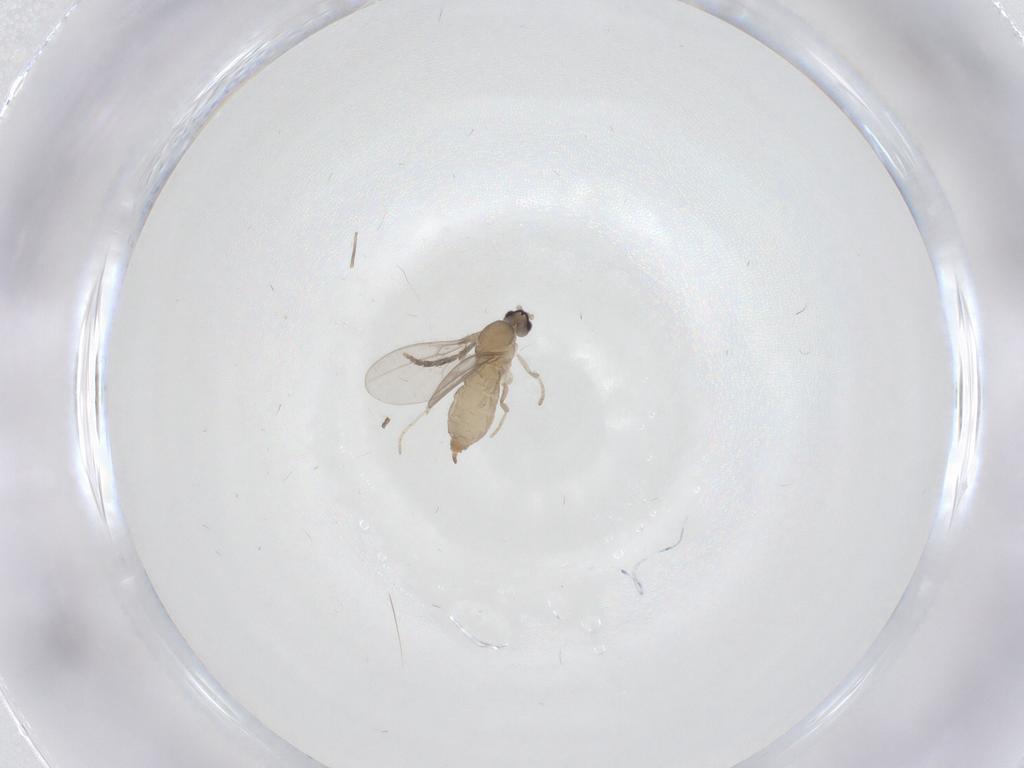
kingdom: Animalia
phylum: Arthropoda
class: Insecta
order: Diptera
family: Cecidomyiidae
